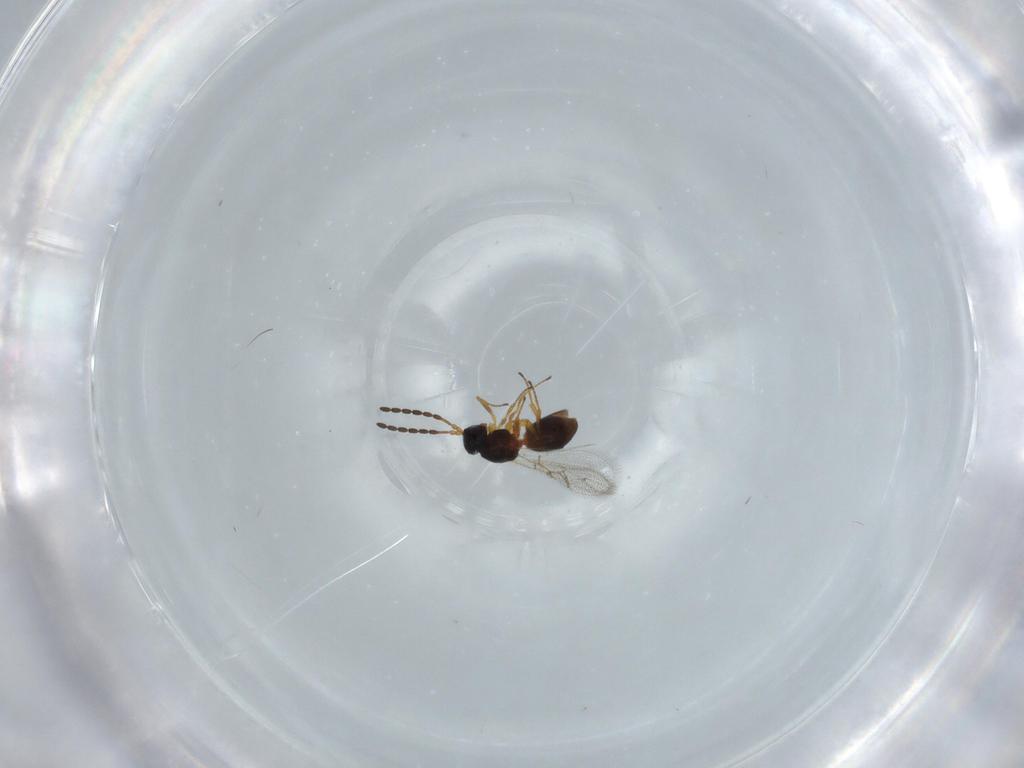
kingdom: Animalia
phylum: Arthropoda
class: Insecta
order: Hymenoptera
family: Figitidae
